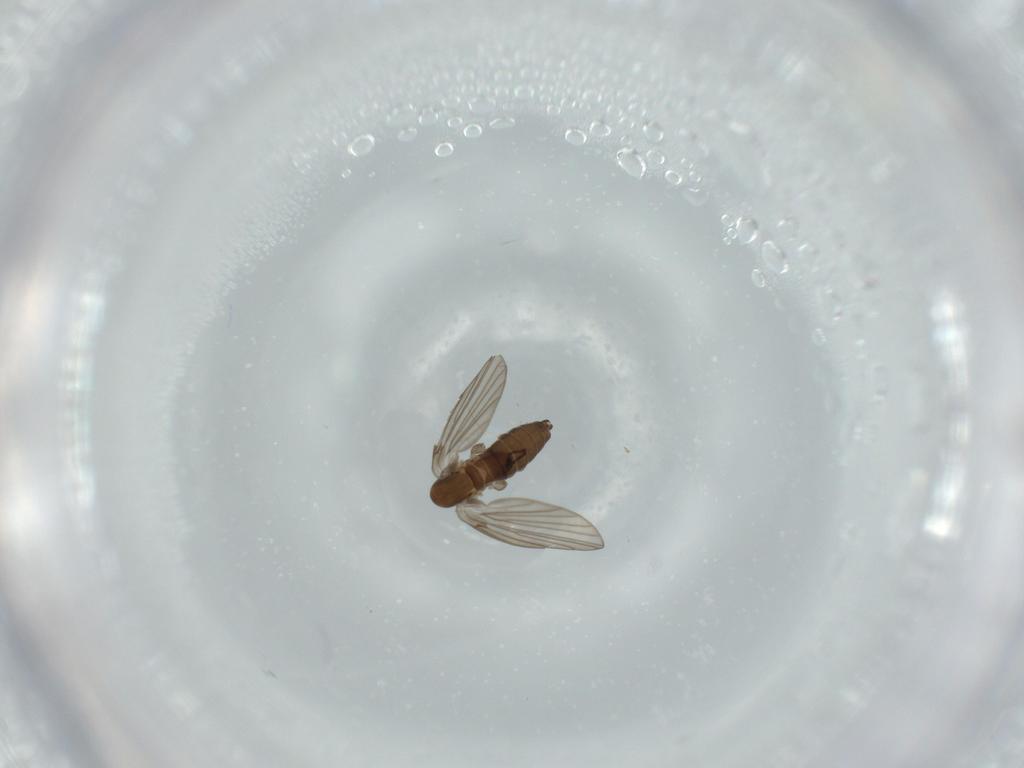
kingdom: Animalia
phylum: Arthropoda
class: Insecta
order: Diptera
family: Psychodidae
